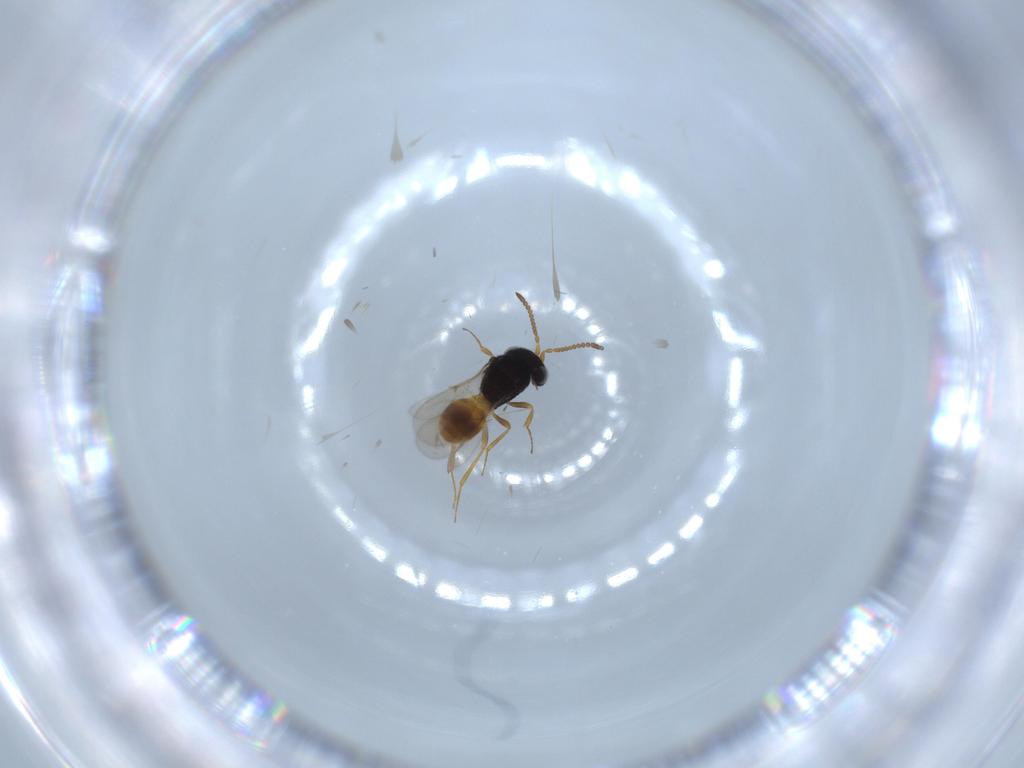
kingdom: Animalia
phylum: Arthropoda
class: Insecta
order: Hymenoptera
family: Scelionidae
